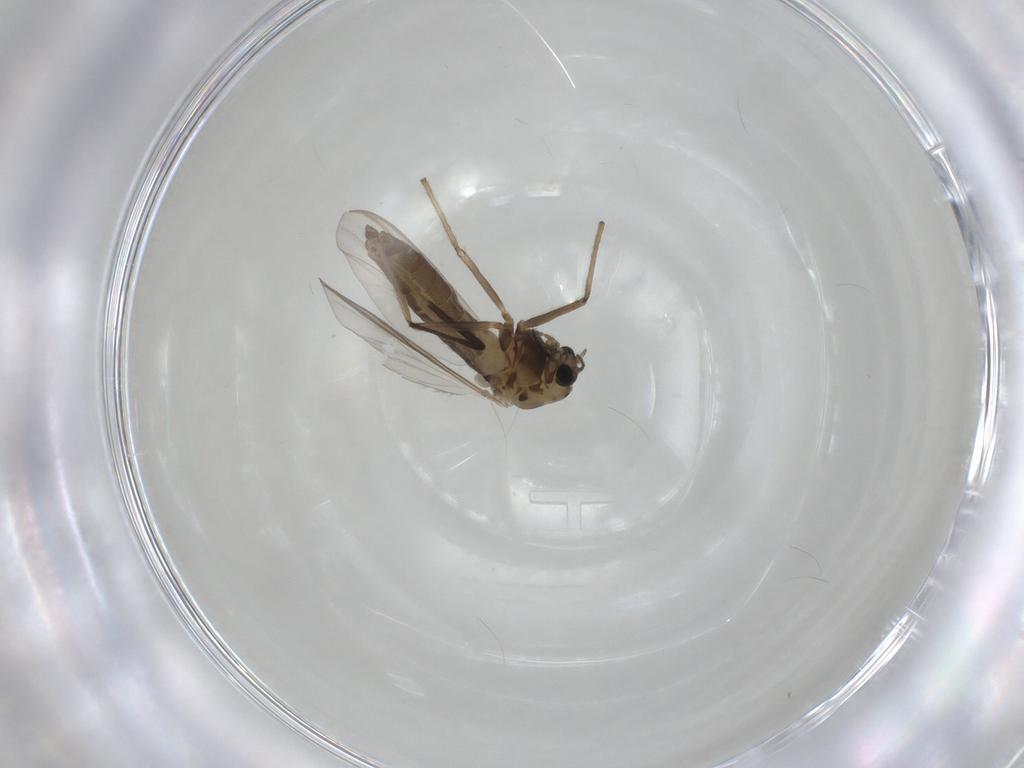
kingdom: Animalia
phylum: Arthropoda
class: Insecta
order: Diptera
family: Chironomidae
